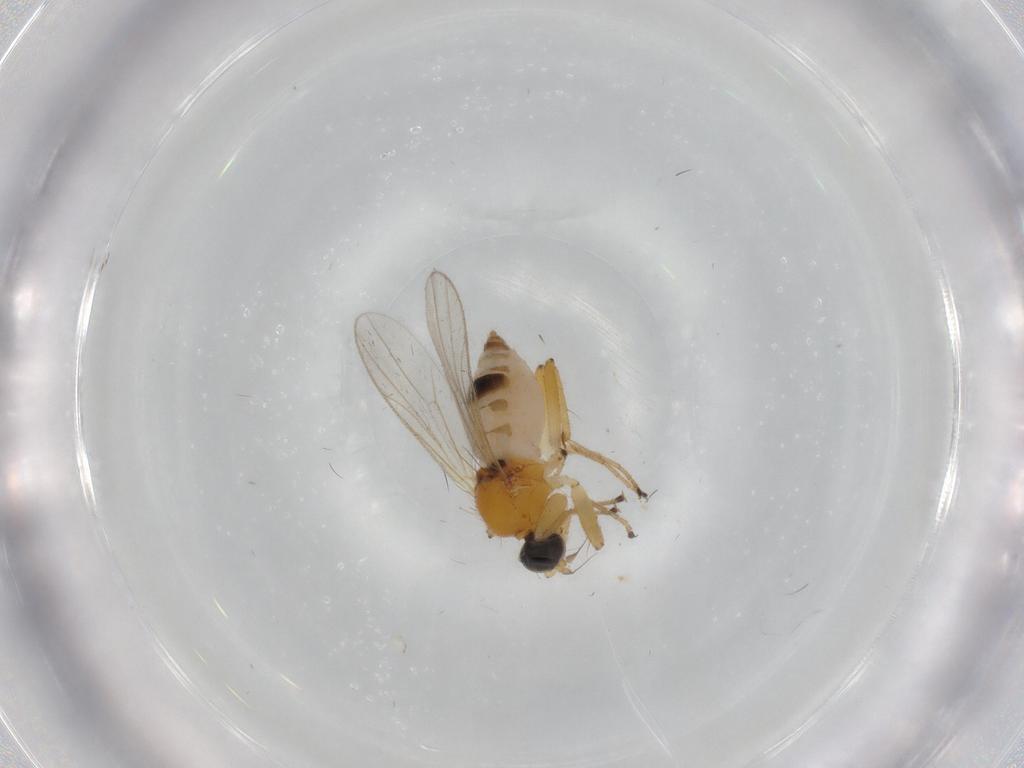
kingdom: Animalia
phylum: Arthropoda
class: Insecta
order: Diptera
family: Hybotidae
